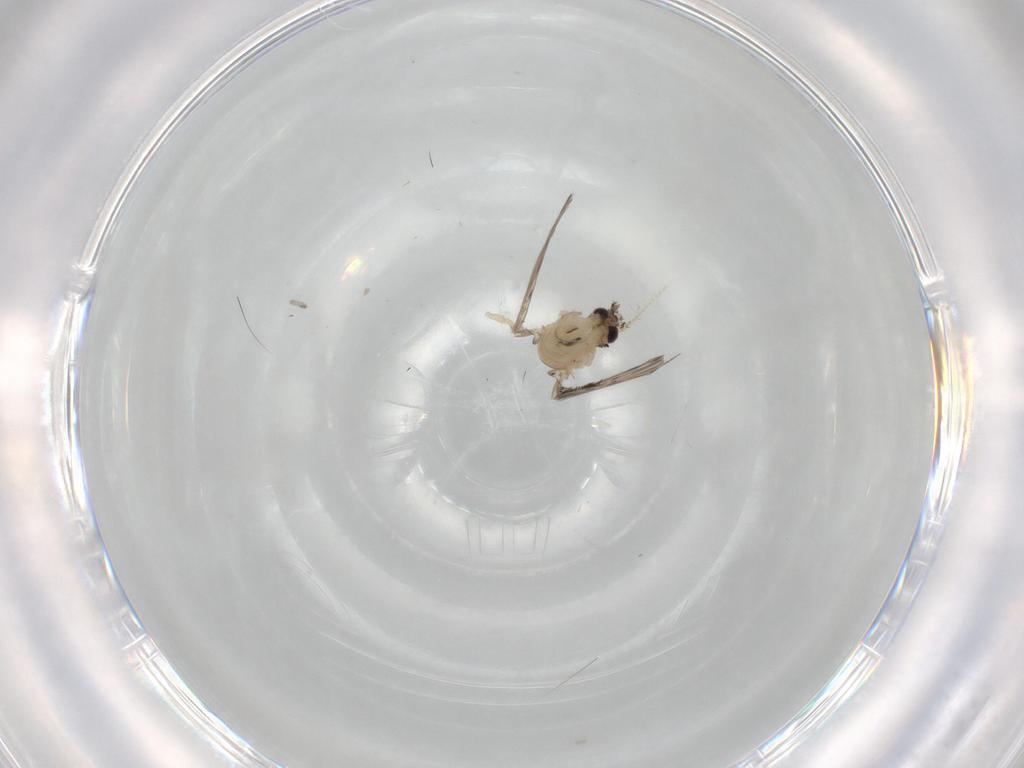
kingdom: Animalia
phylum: Arthropoda
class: Insecta
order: Diptera
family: Psychodidae
